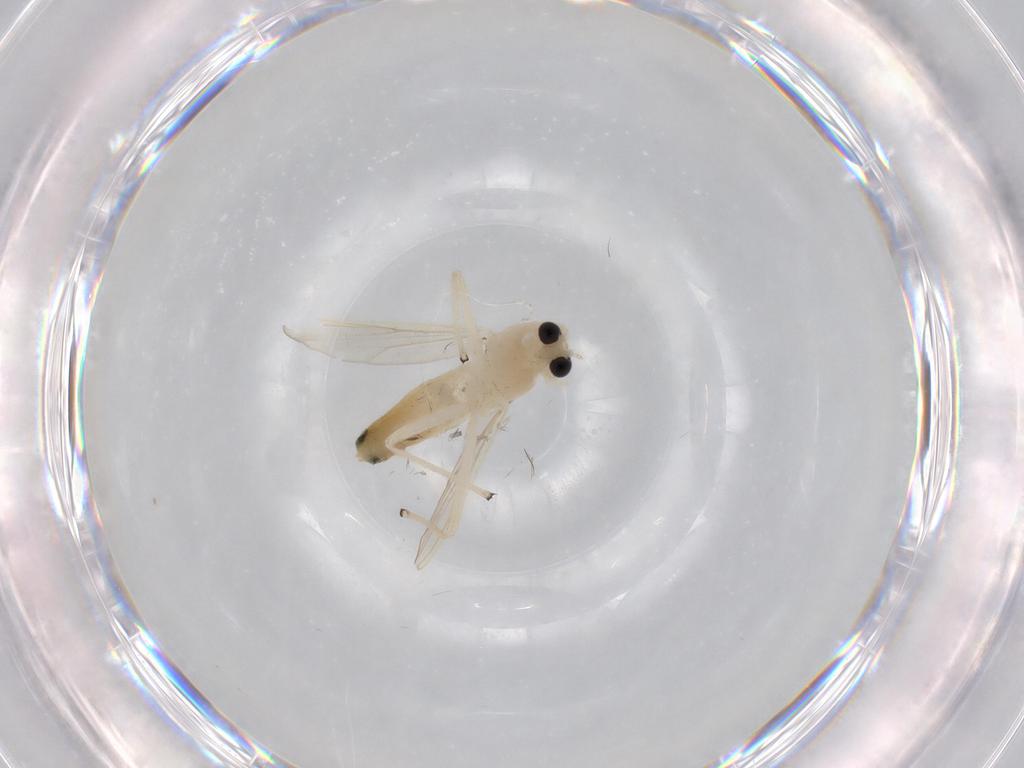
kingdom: Animalia
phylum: Arthropoda
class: Insecta
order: Diptera
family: Chironomidae
